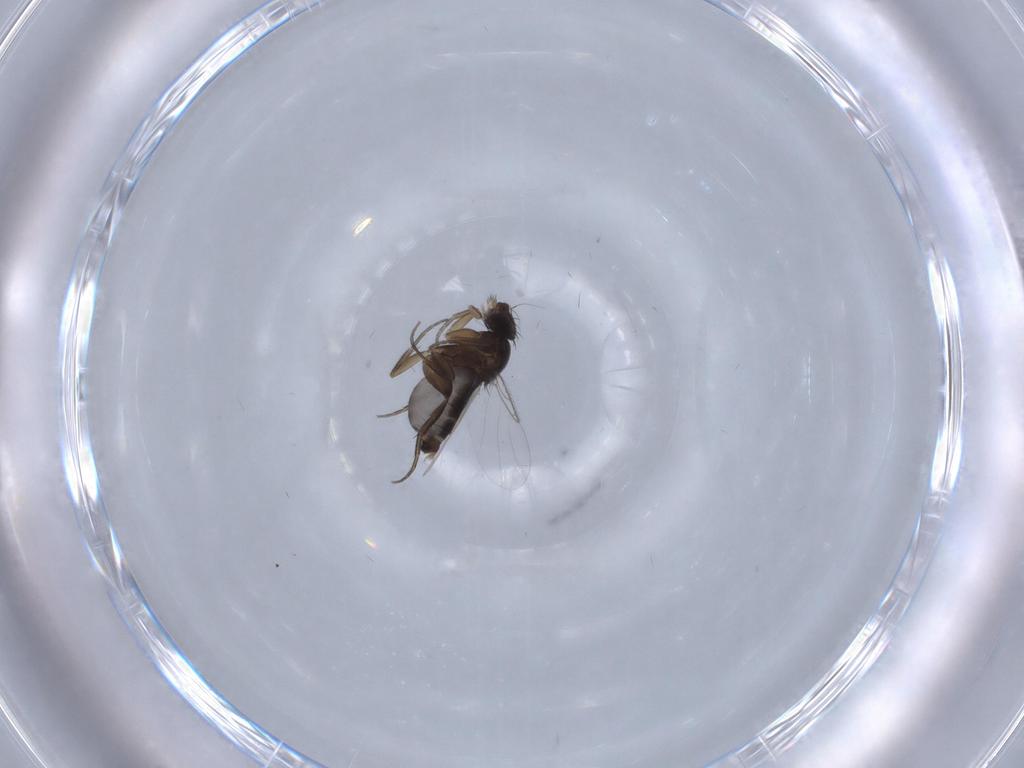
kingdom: Animalia
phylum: Arthropoda
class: Insecta
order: Diptera
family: Phoridae
